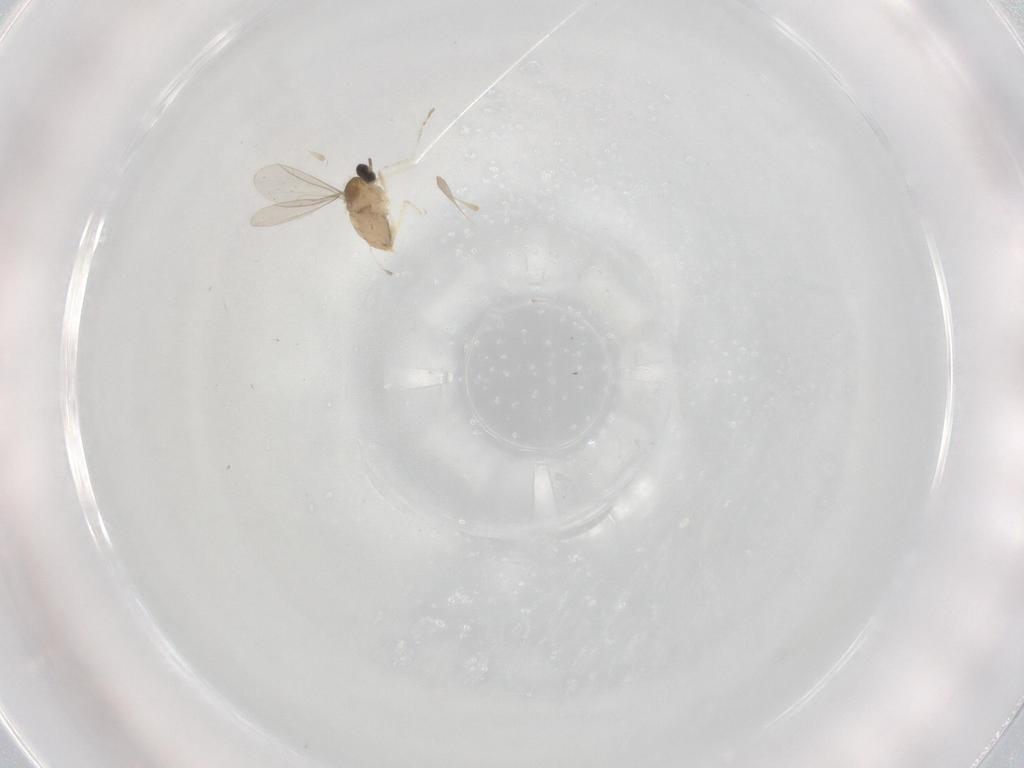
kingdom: Animalia
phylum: Arthropoda
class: Insecta
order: Diptera
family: Cecidomyiidae
